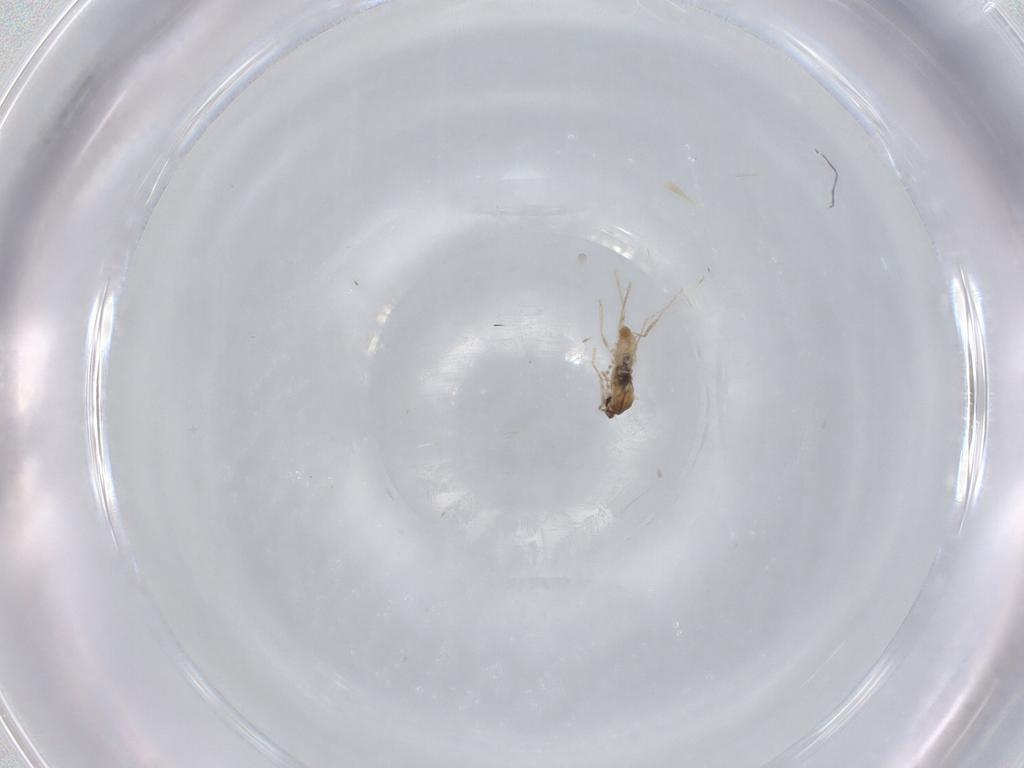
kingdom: Animalia
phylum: Arthropoda
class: Insecta
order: Diptera
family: Cecidomyiidae
